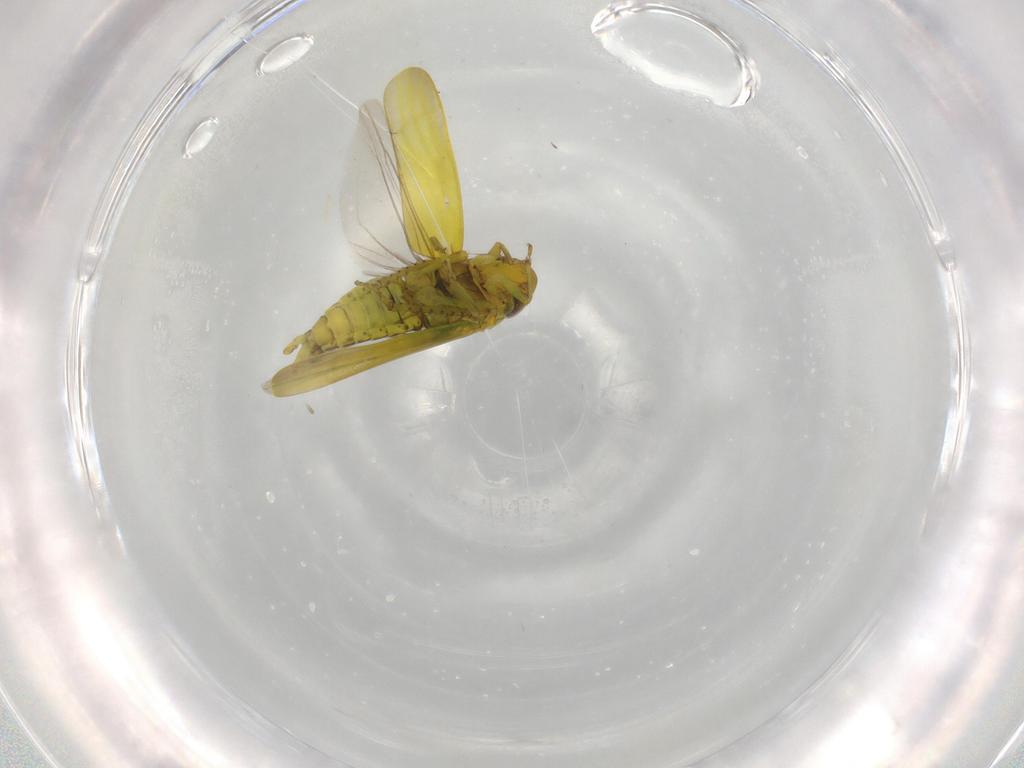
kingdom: Animalia
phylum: Arthropoda
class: Insecta
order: Hemiptera
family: Cicadellidae
